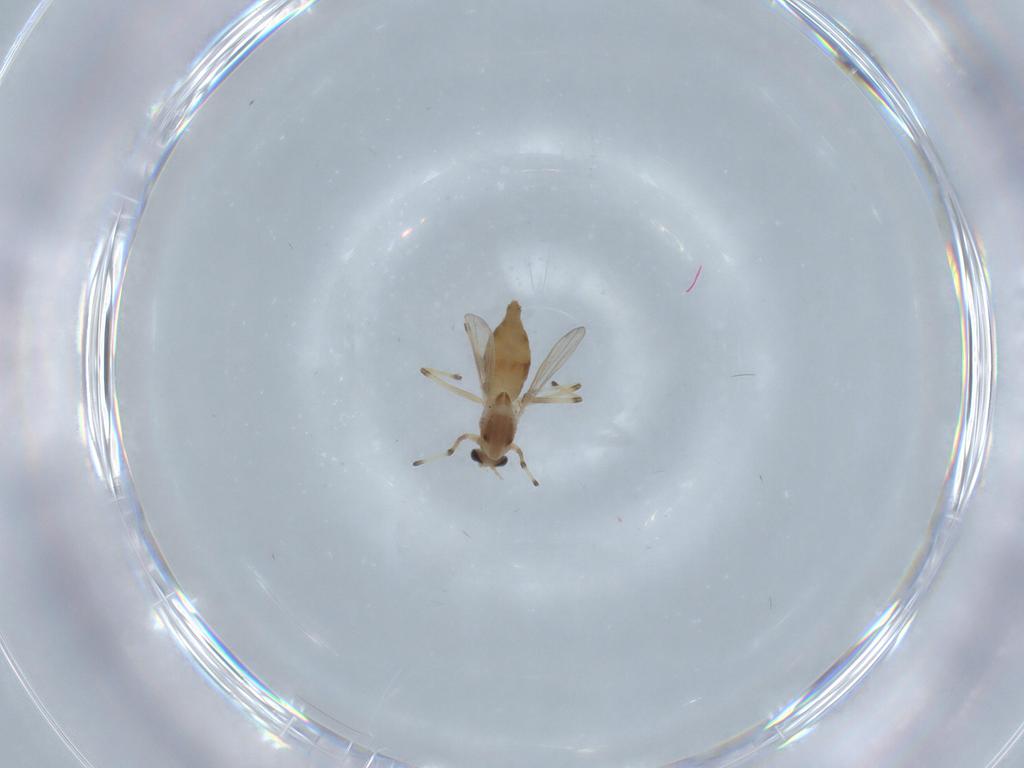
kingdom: Animalia
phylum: Arthropoda
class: Insecta
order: Diptera
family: Chironomidae
